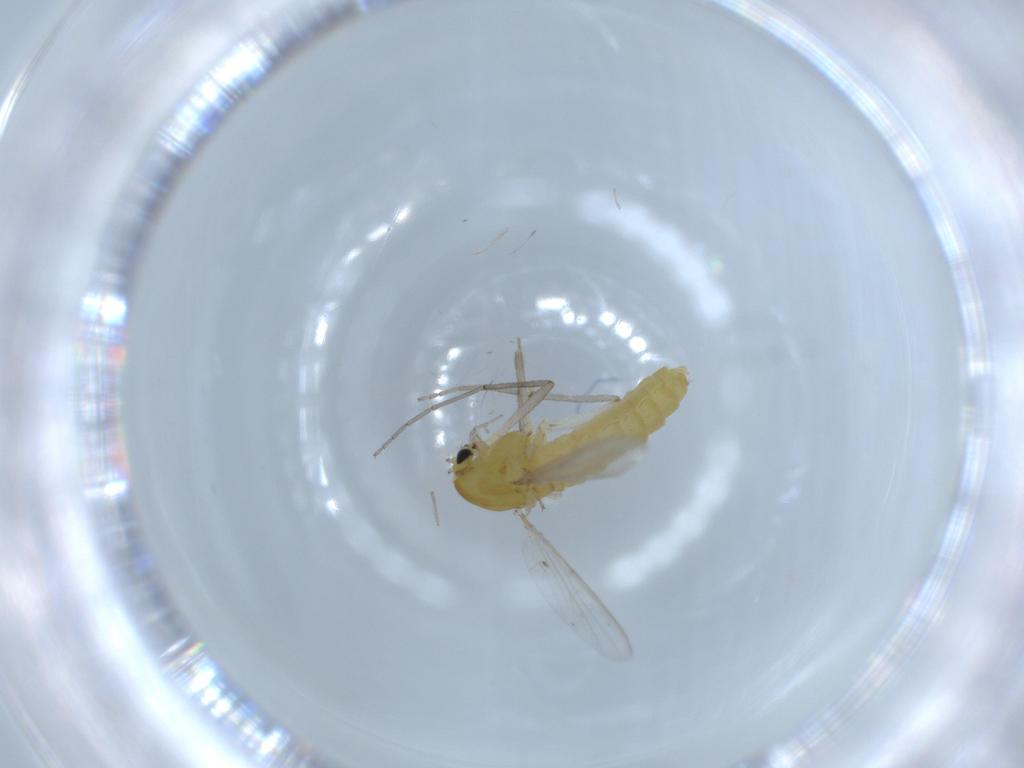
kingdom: Animalia
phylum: Arthropoda
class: Insecta
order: Diptera
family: Chironomidae
